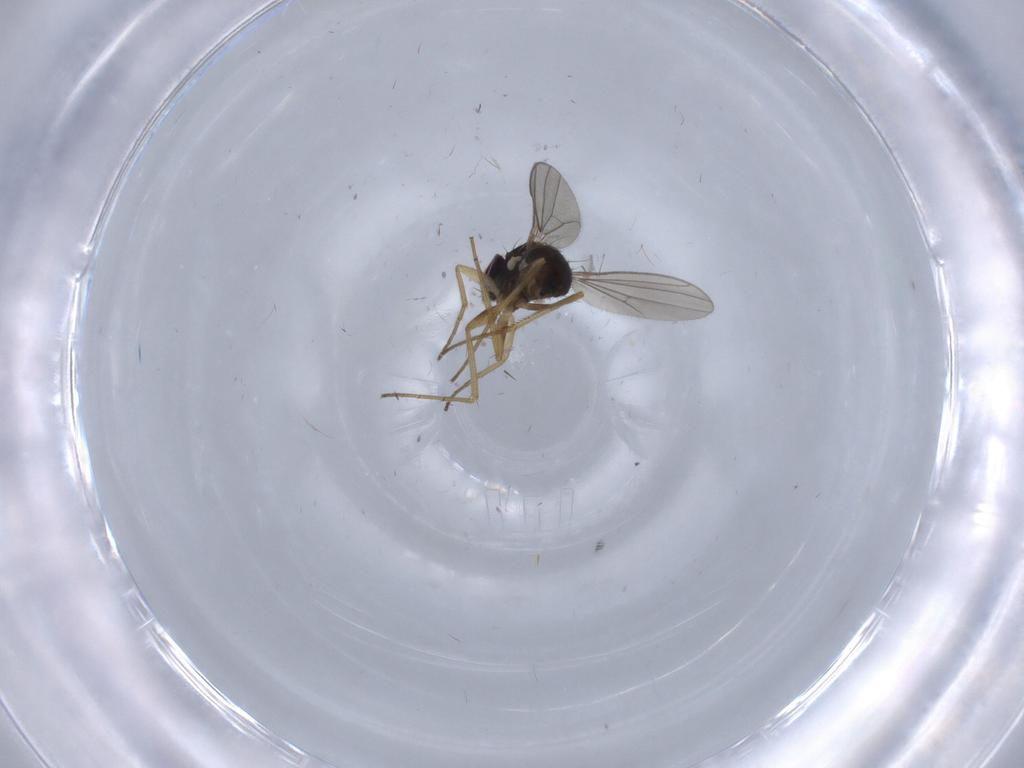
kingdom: Animalia
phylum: Arthropoda
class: Insecta
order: Diptera
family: Dolichopodidae
